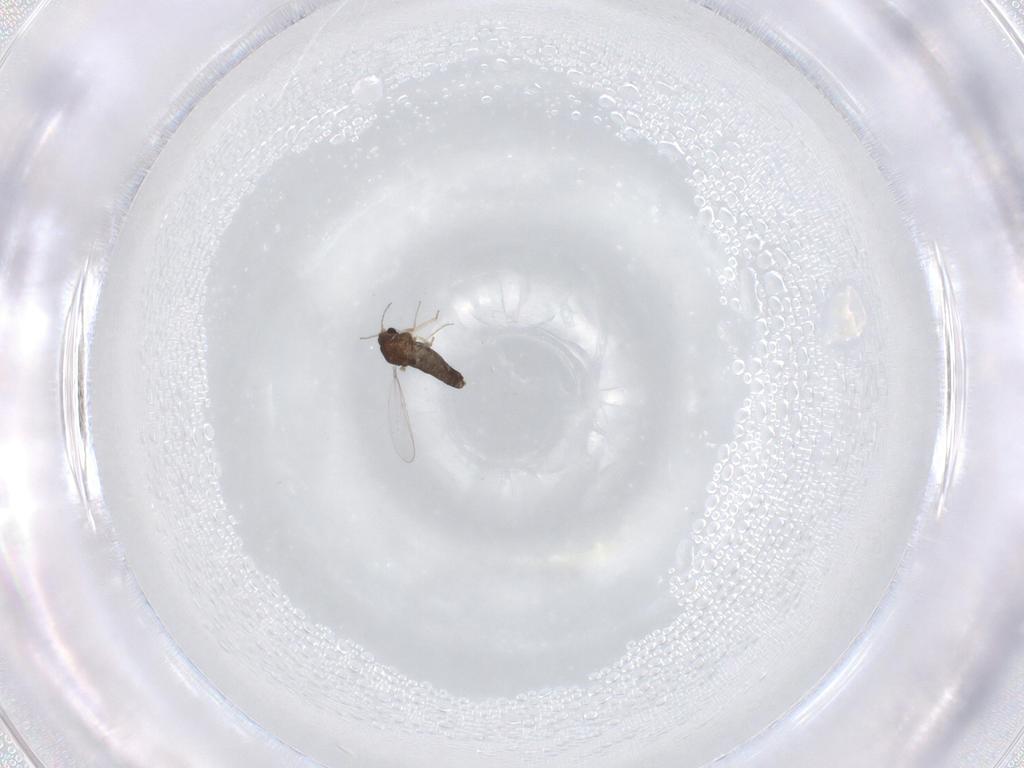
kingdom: Animalia
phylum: Arthropoda
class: Insecta
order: Diptera
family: Chironomidae
